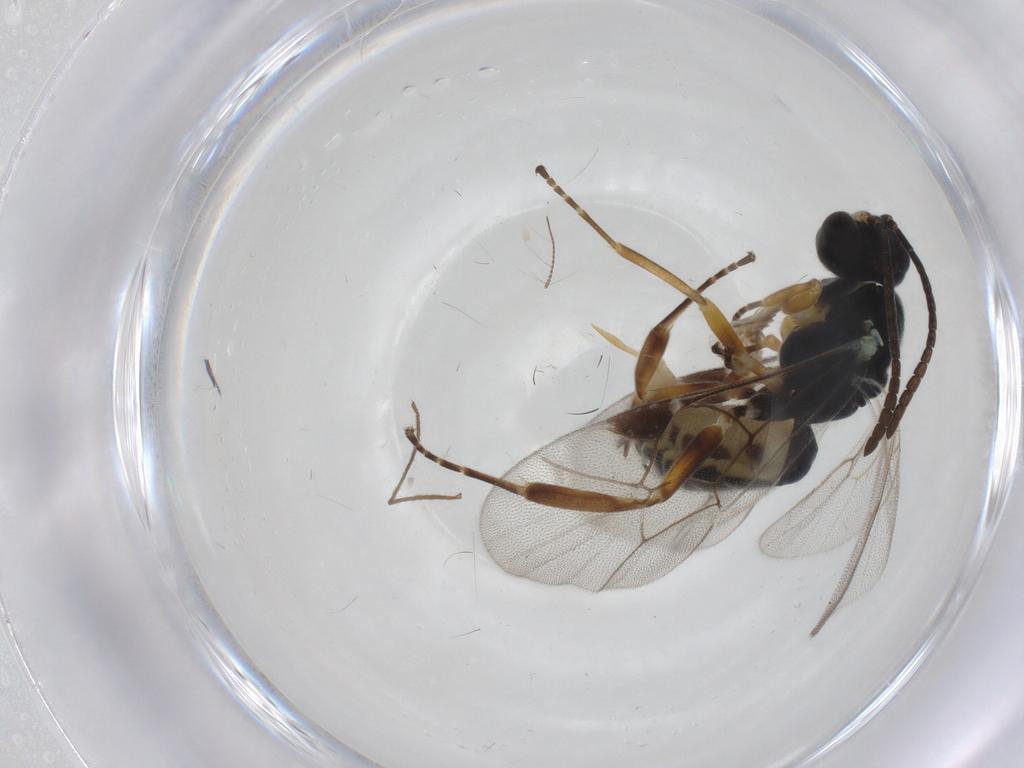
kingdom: Animalia
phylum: Arthropoda
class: Insecta
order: Hymenoptera
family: Ichneumonidae
